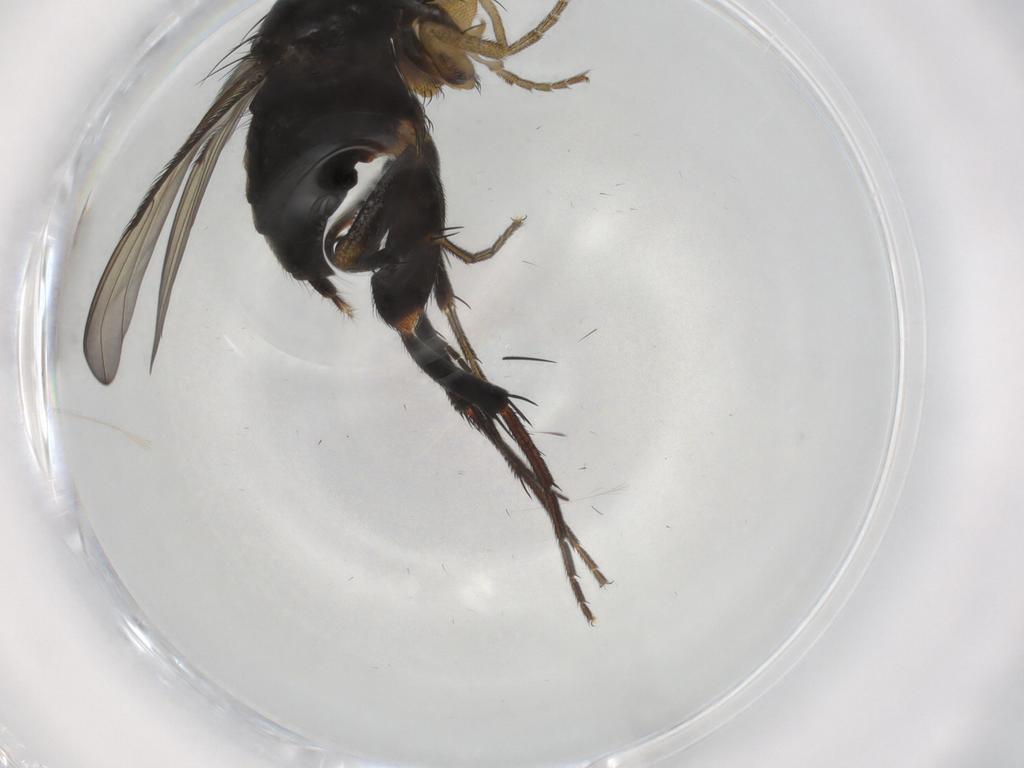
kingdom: Animalia
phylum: Arthropoda
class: Insecta
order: Diptera
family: Phoridae
